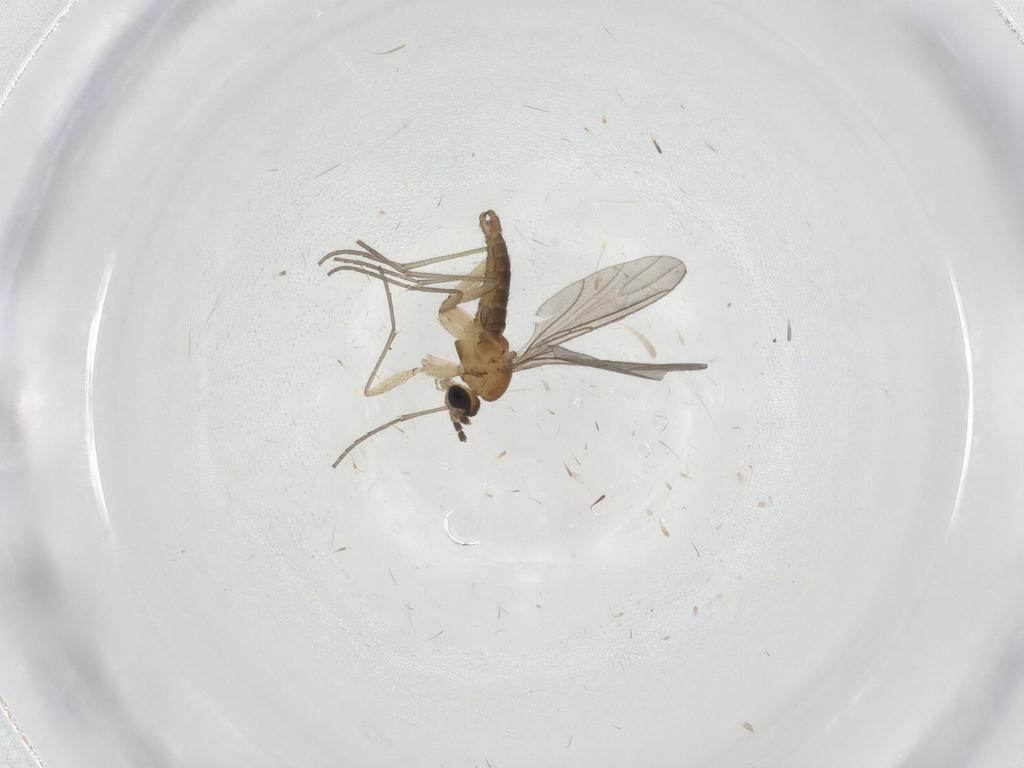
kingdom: Animalia
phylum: Arthropoda
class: Insecta
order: Diptera
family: Sciaridae
